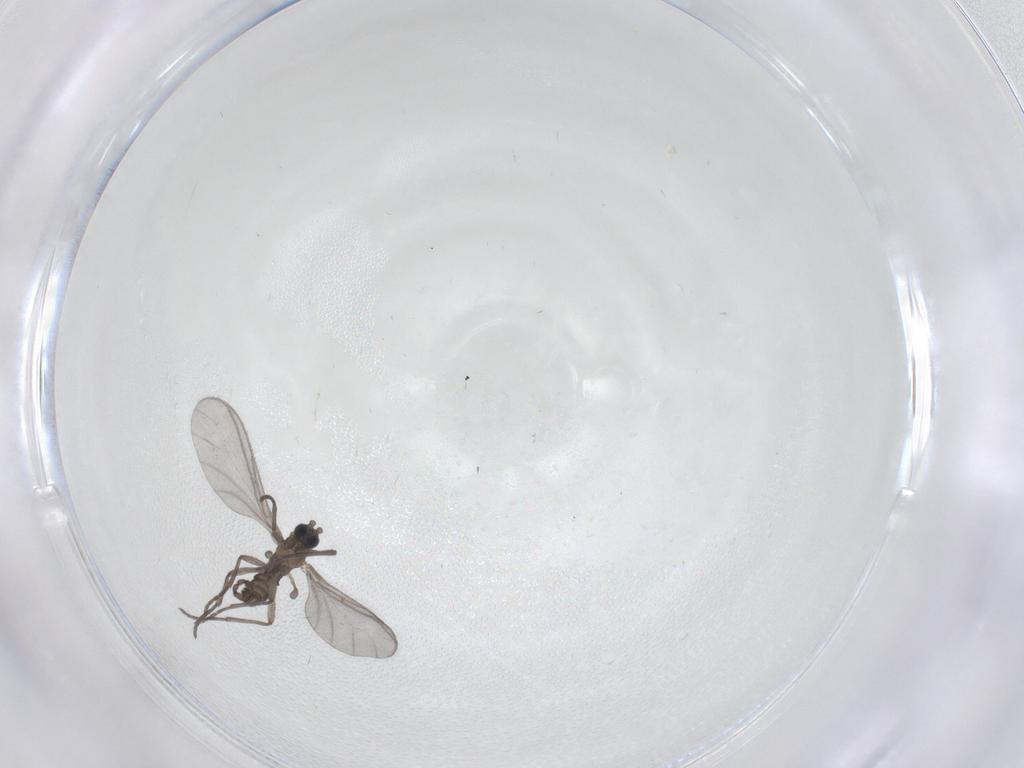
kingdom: Animalia
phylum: Arthropoda
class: Insecta
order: Diptera
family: Sciaridae
